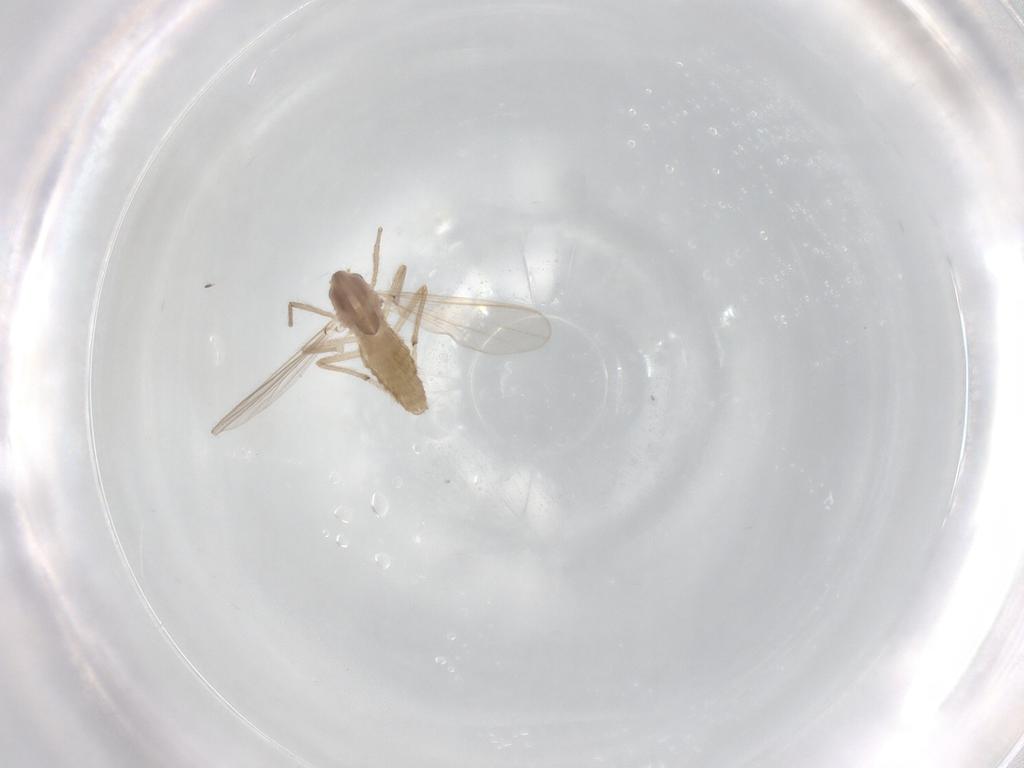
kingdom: Animalia
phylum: Arthropoda
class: Insecta
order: Diptera
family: Chironomidae
